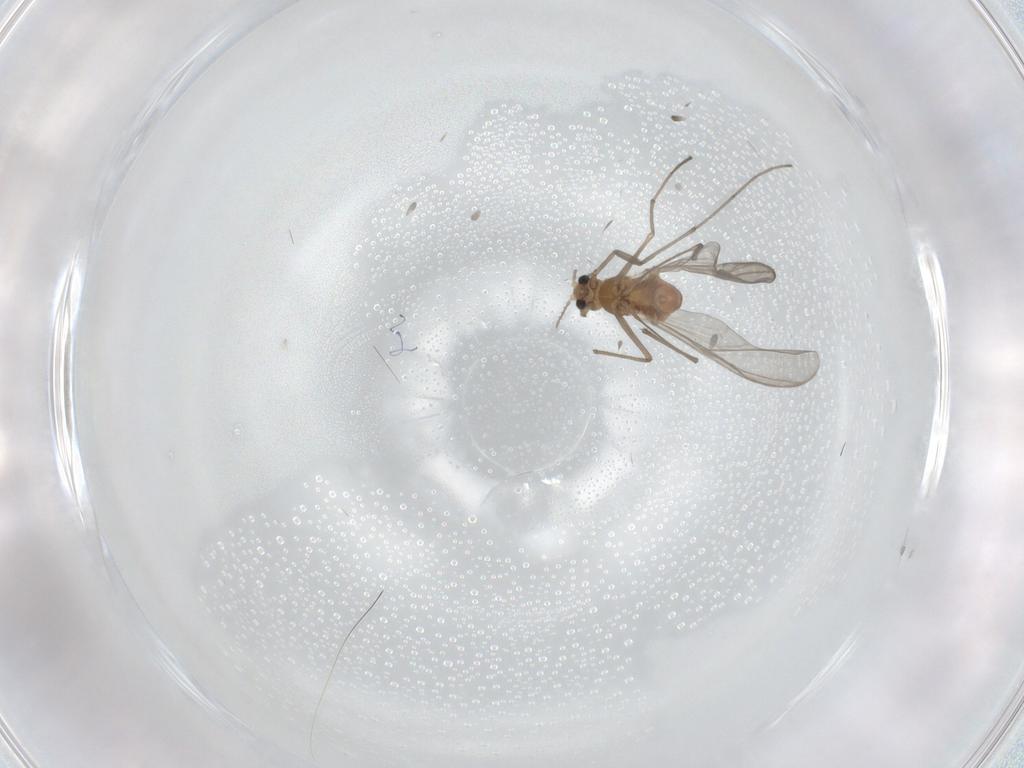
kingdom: Animalia
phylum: Arthropoda
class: Insecta
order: Diptera
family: Chironomidae
